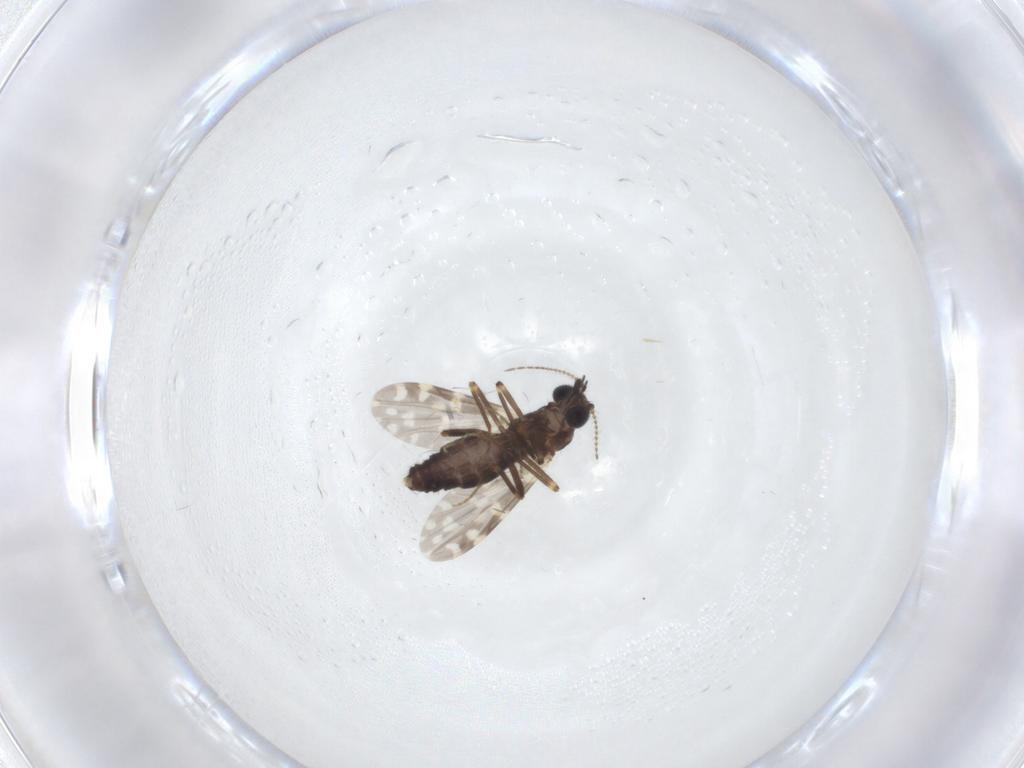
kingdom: Animalia
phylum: Arthropoda
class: Insecta
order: Diptera
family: Ceratopogonidae
